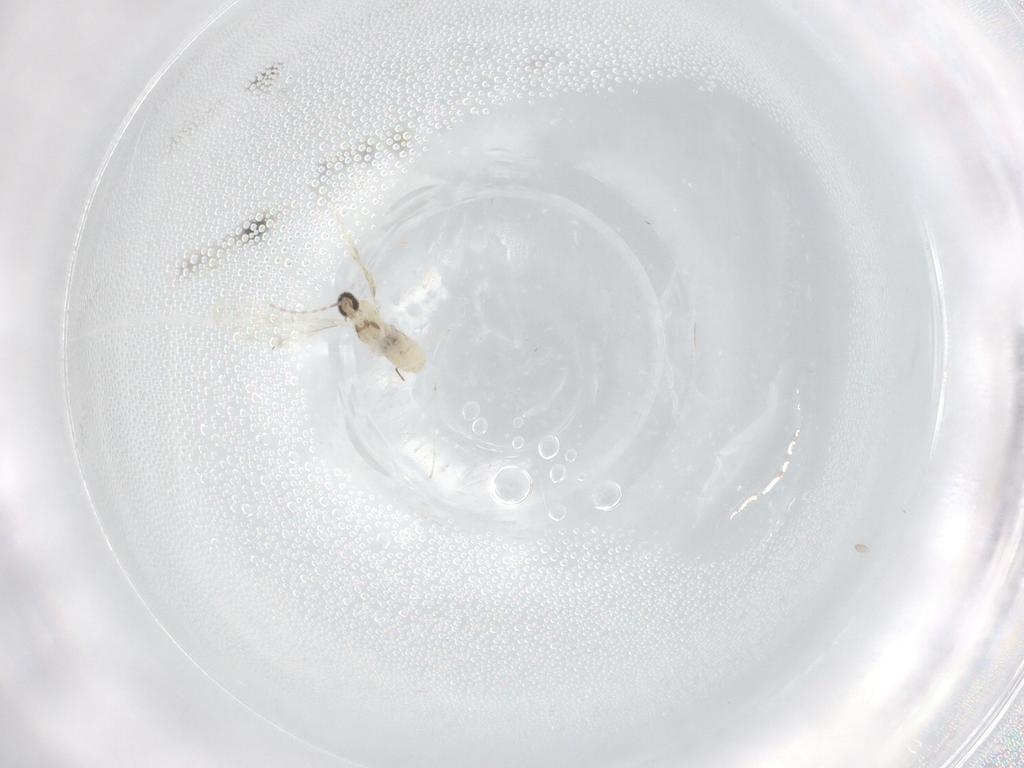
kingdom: Animalia
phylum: Arthropoda
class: Insecta
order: Diptera
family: Cecidomyiidae
